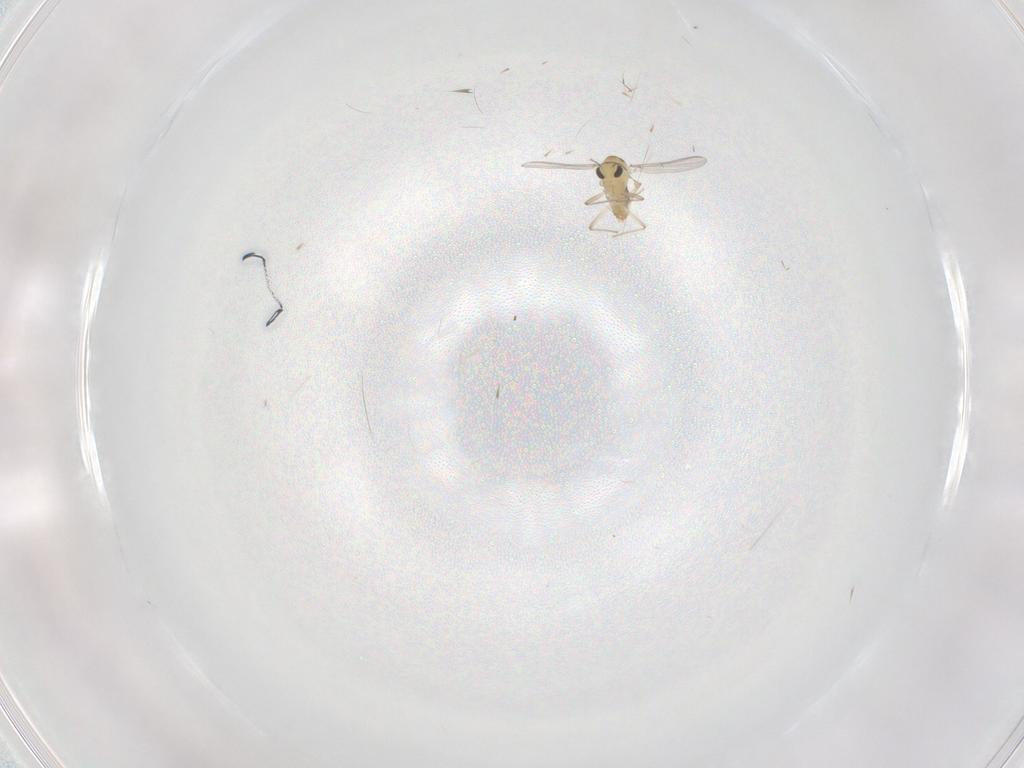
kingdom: Animalia
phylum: Arthropoda
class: Insecta
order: Diptera
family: Chironomidae
